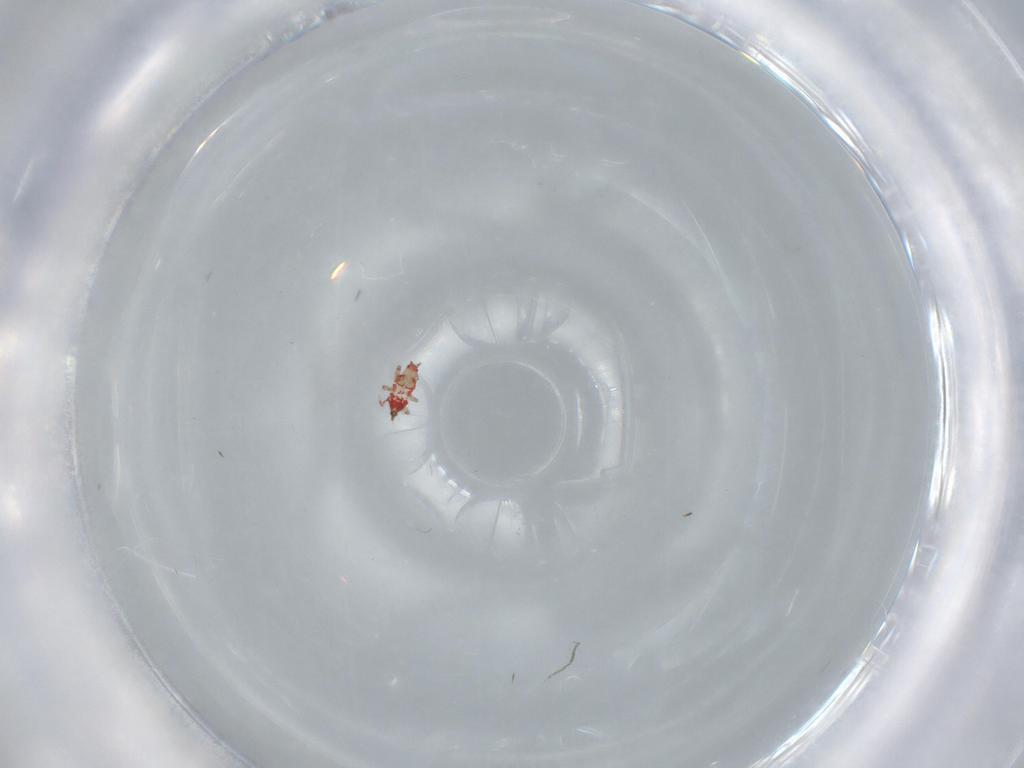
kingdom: Animalia
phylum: Arthropoda
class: Insecta
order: Thysanoptera
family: Phlaeothripidae
